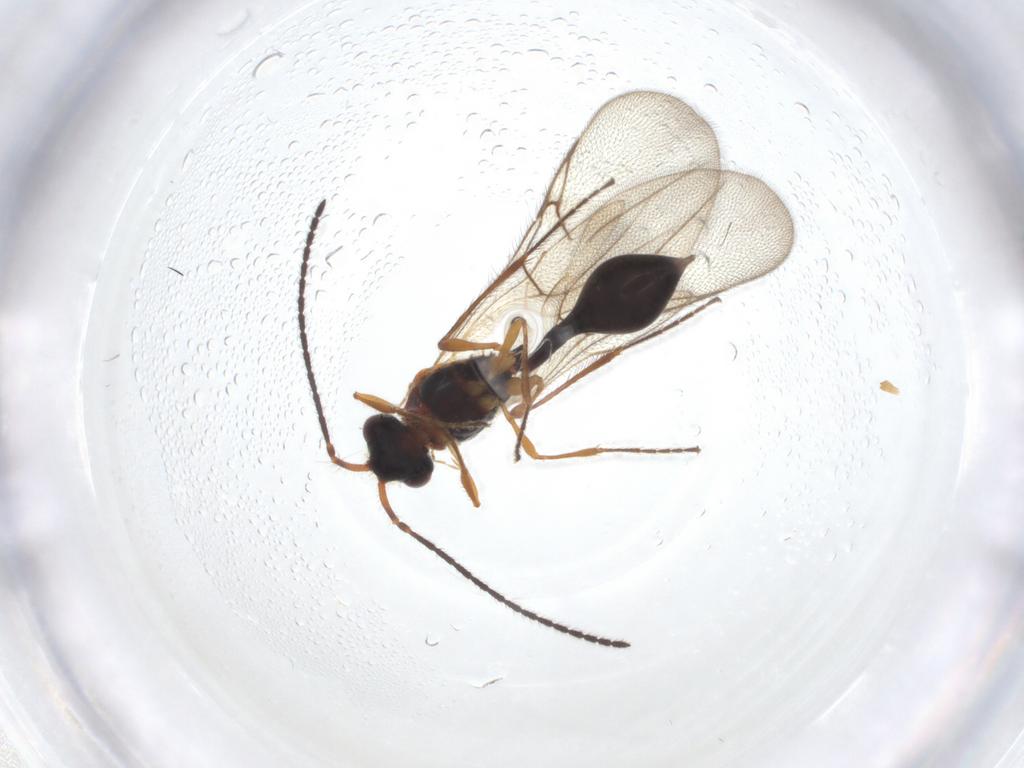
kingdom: Animalia
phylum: Arthropoda
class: Insecta
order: Hymenoptera
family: Diapriidae
